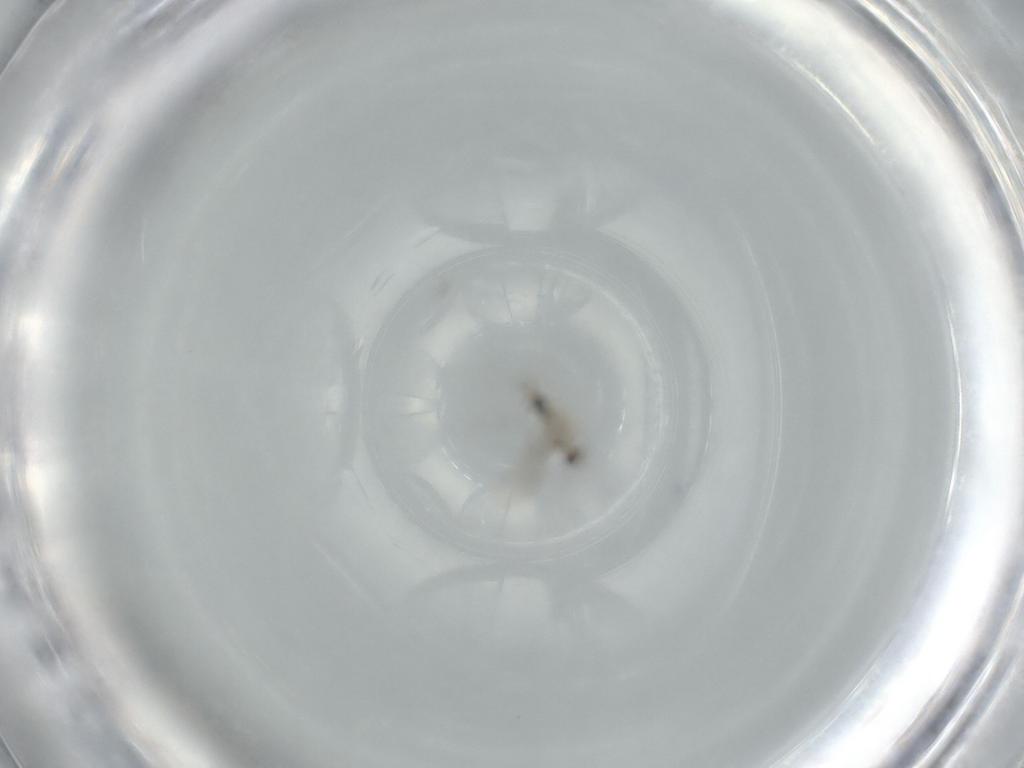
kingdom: Animalia
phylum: Arthropoda
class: Insecta
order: Diptera
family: Cecidomyiidae
